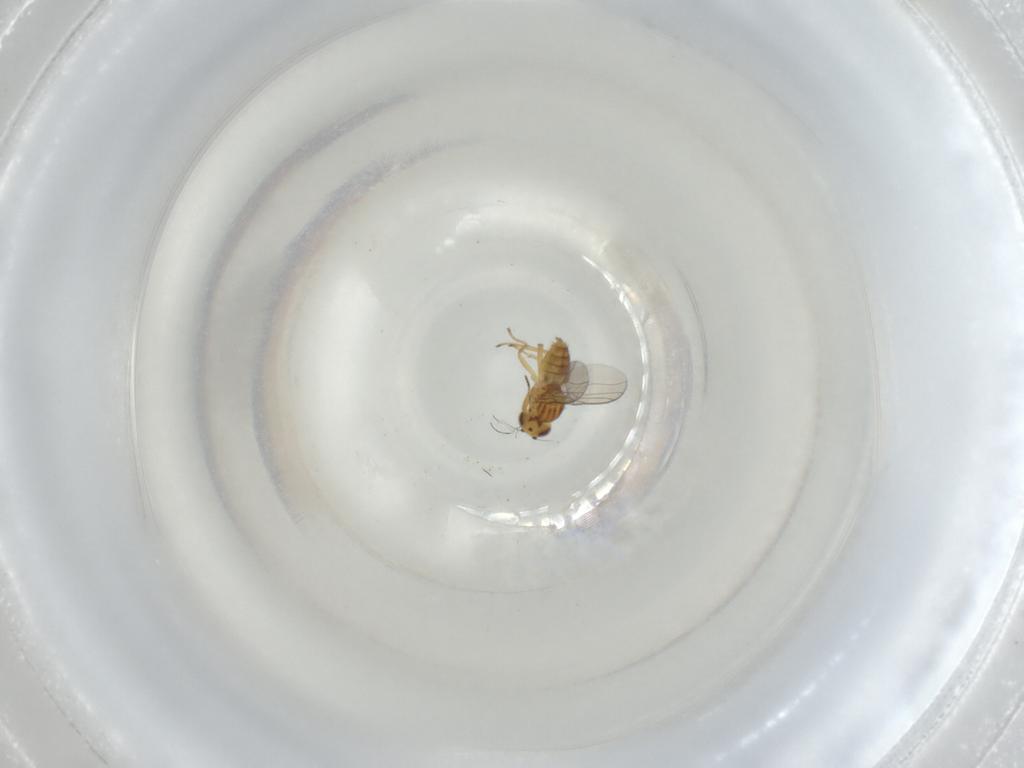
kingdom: Animalia
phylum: Arthropoda
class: Insecta
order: Diptera
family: Chloropidae
